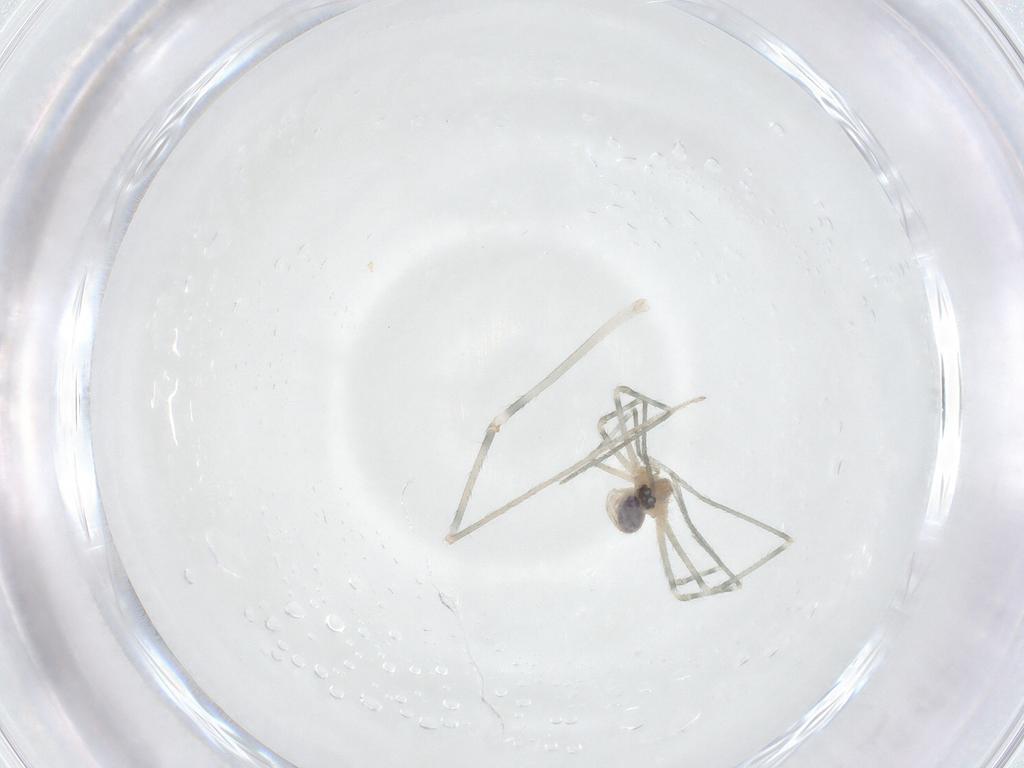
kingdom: Animalia
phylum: Arthropoda
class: Arachnida
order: Araneae
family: Pholcidae
